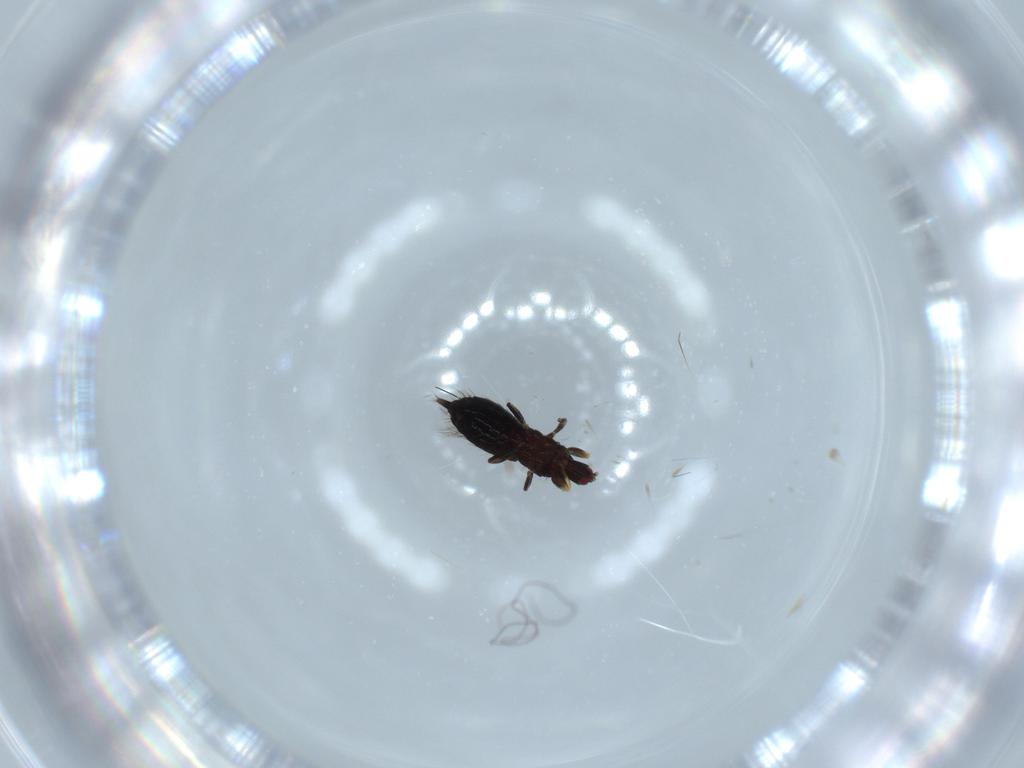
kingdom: Animalia
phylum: Arthropoda
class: Insecta
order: Thysanoptera
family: Phlaeothripidae
